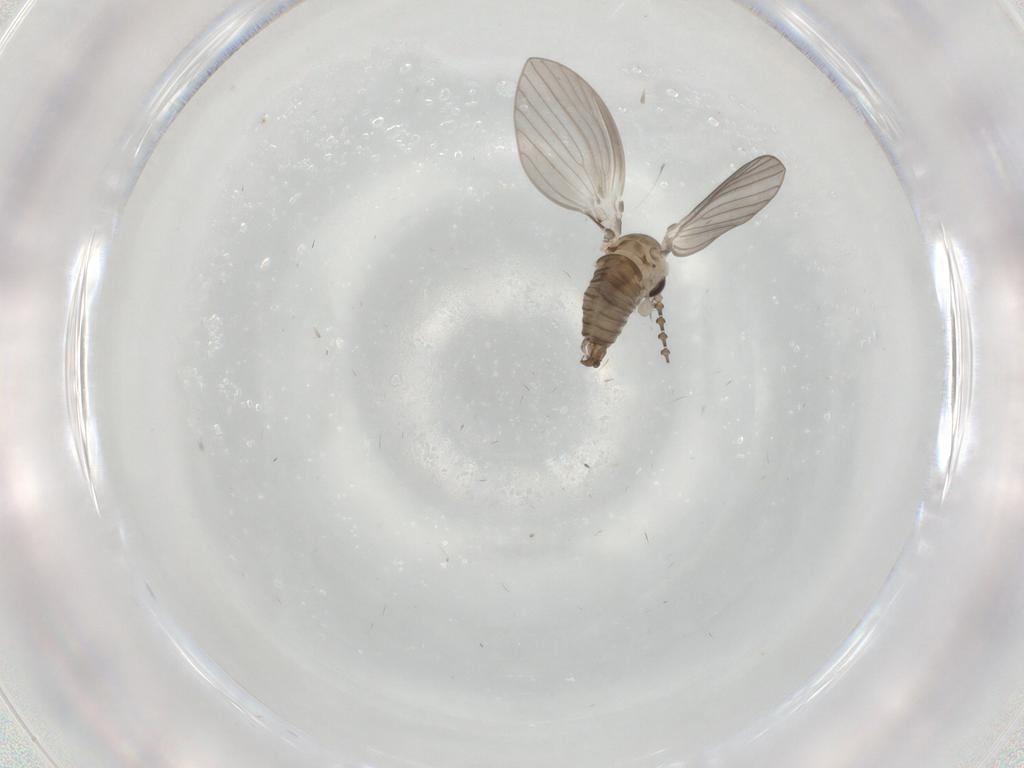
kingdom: Animalia
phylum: Arthropoda
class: Insecta
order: Diptera
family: Psychodidae
